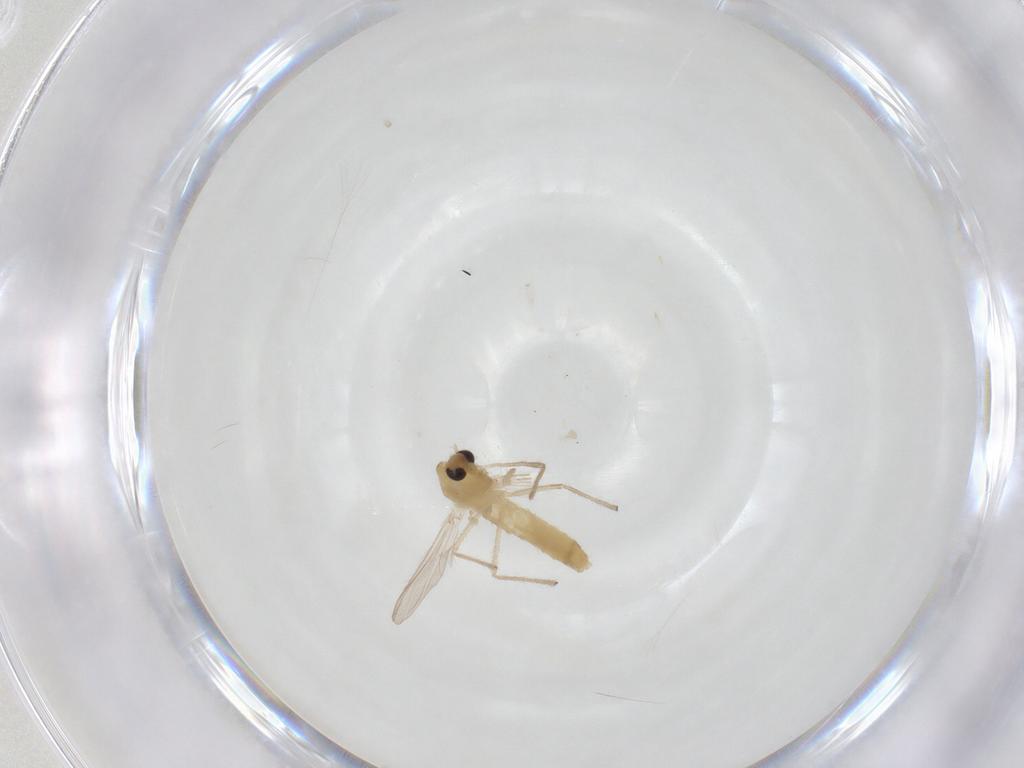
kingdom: Animalia
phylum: Arthropoda
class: Insecta
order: Diptera
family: Chironomidae
